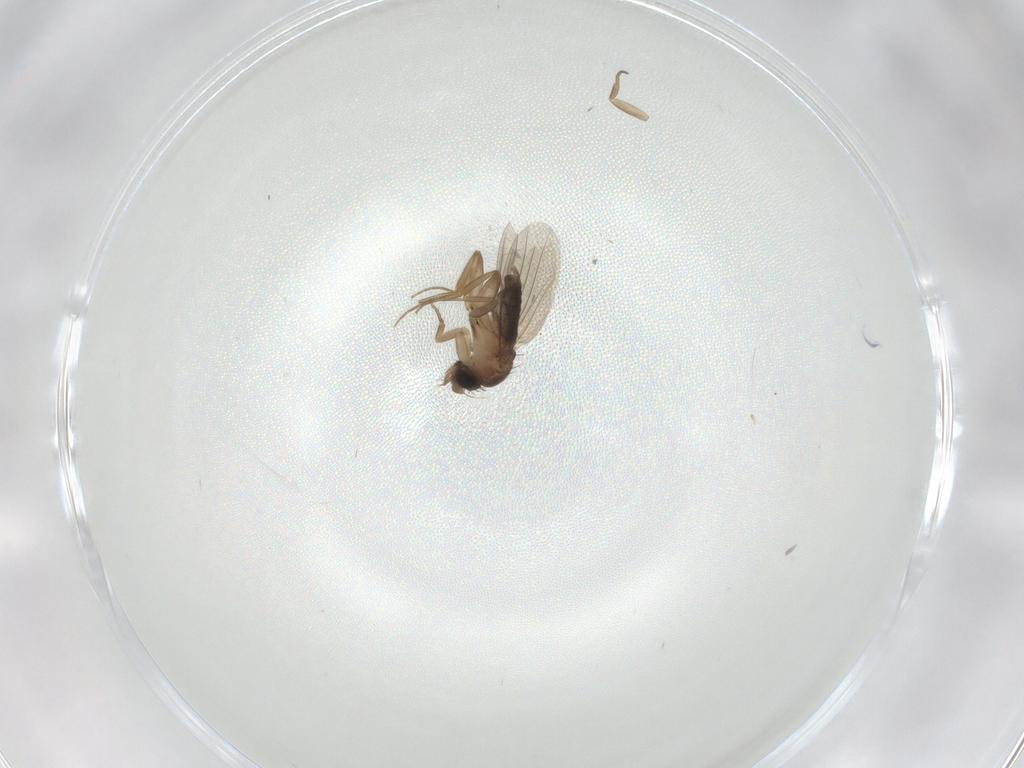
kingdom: Animalia
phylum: Arthropoda
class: Insecta
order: Diptera
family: Phoridae
